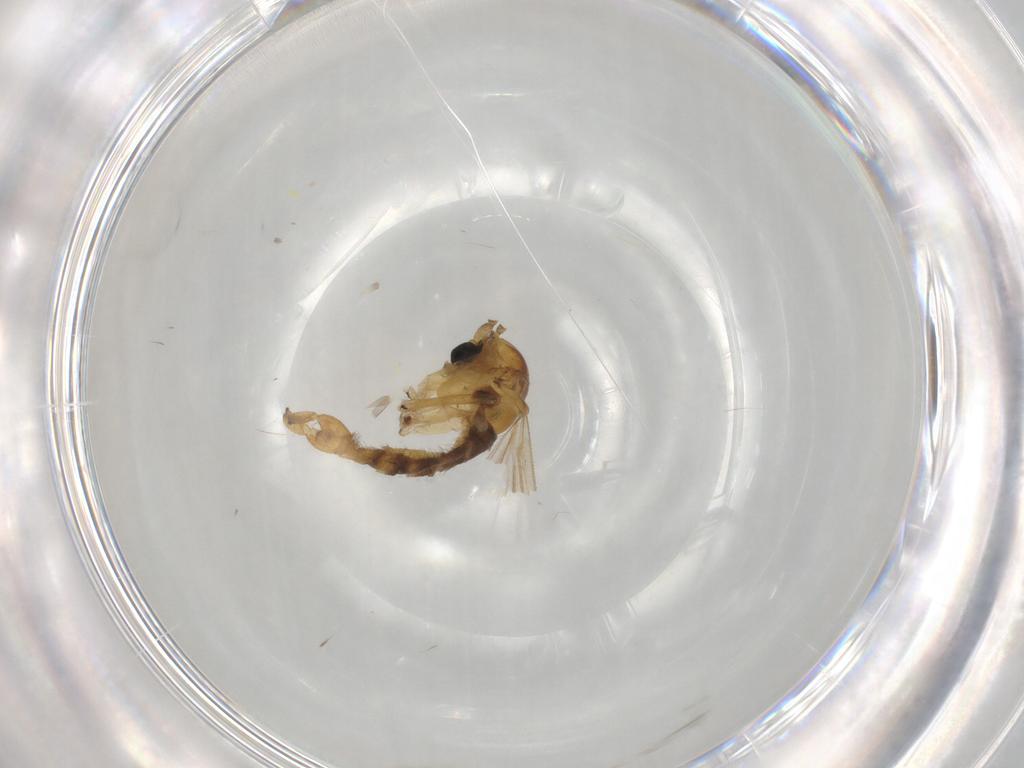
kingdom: Animalia
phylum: Arthropoda
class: Insecta
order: Diptera
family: Sciaridae
